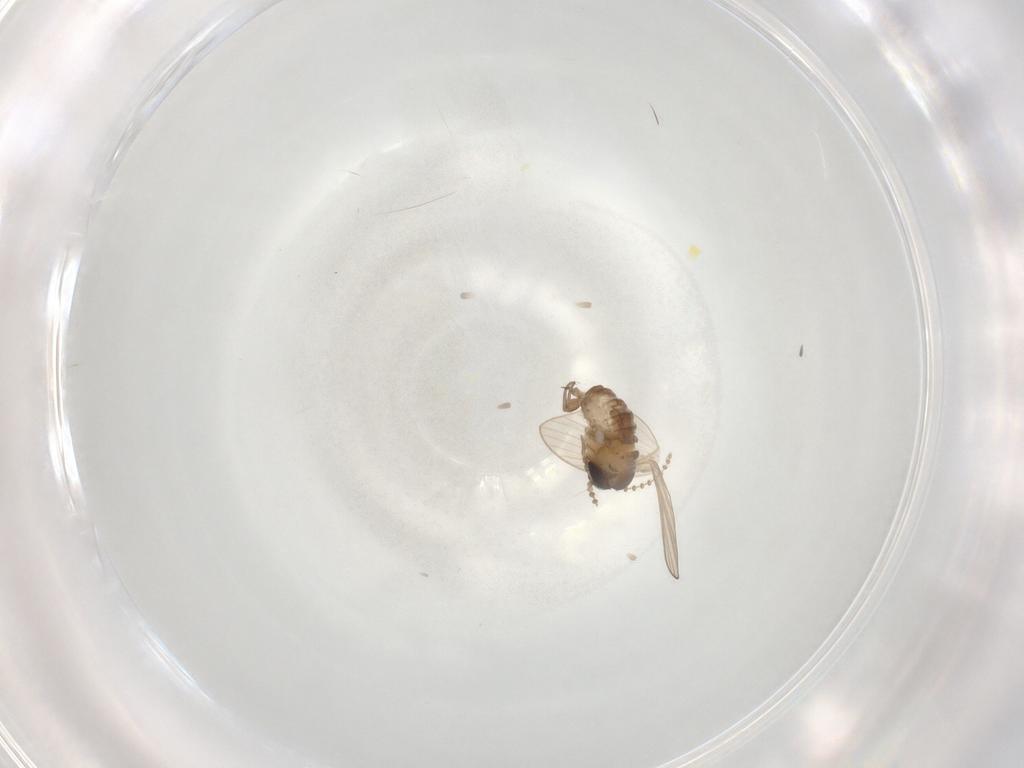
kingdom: Animalia
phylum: Arthropoda
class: Insecta
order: Diptera
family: Psychodidae
